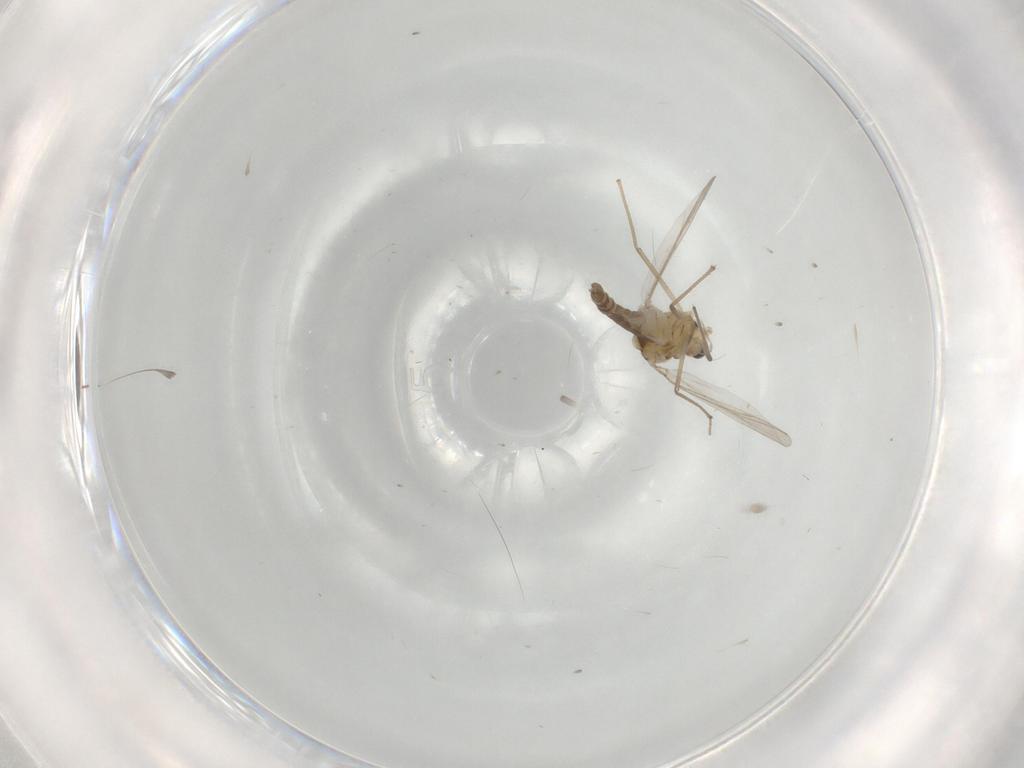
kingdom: Animalia
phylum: Arthropoda
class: Insecta
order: Diptera
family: Chironomidae
